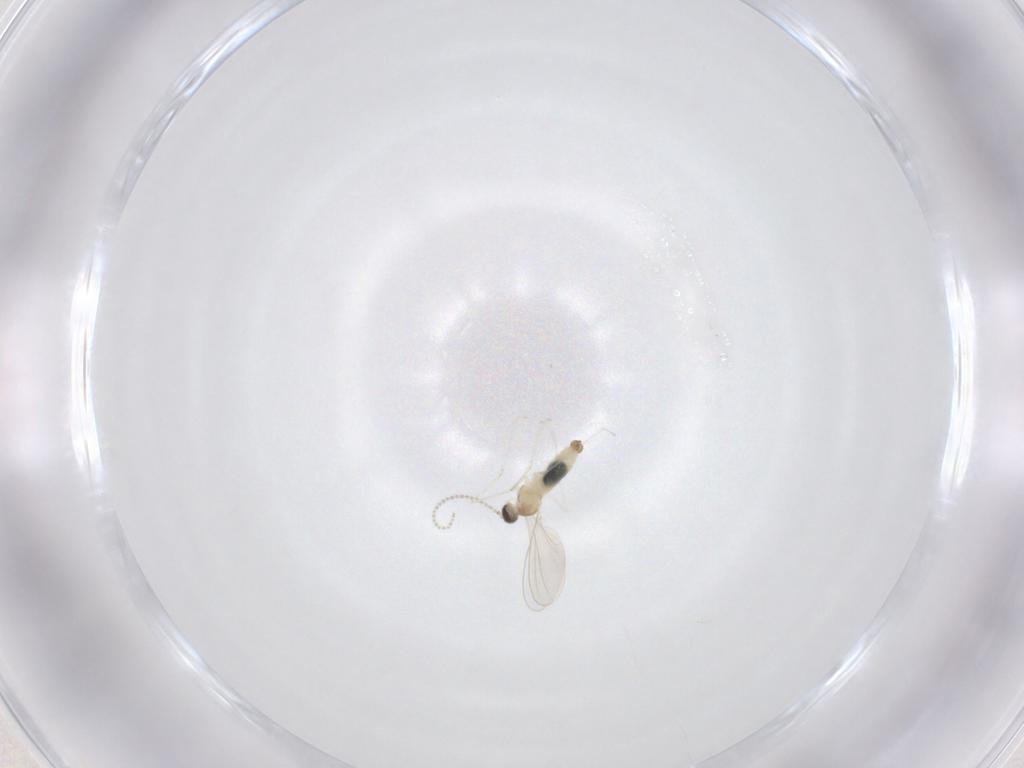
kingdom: Animalia
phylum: Arthropoda
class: Insecta
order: Diptera
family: Cecidomyiidae
